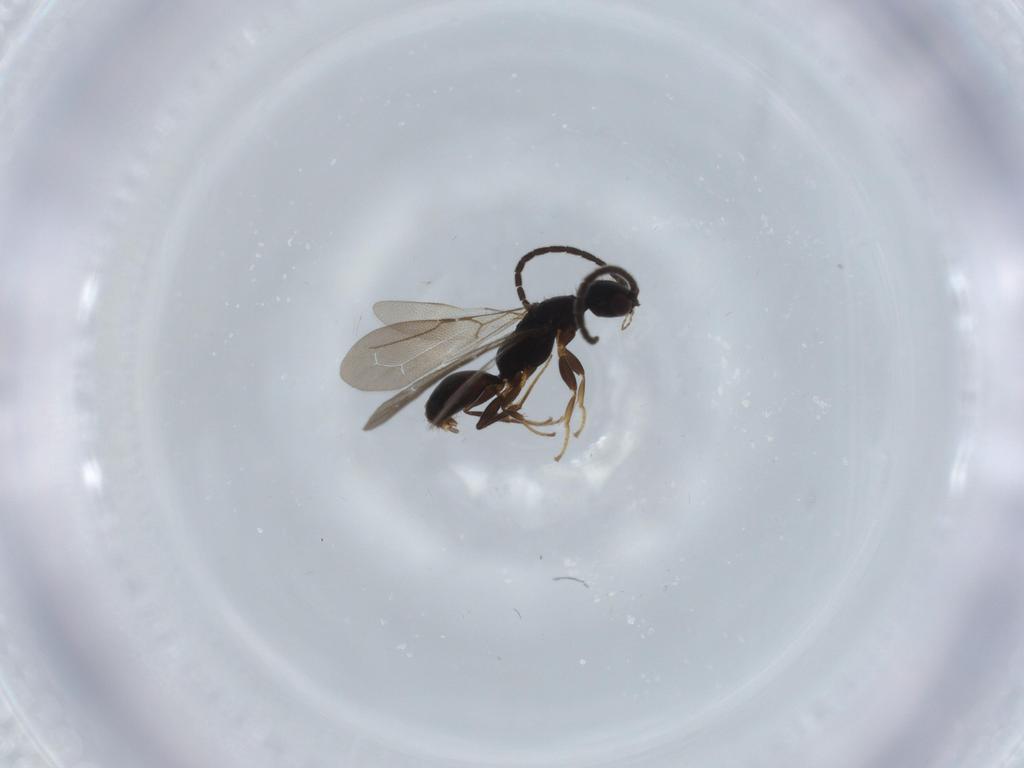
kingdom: Animalia
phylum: Arthropoda
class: Insecta
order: Hymenoptera
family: Bethylidae
